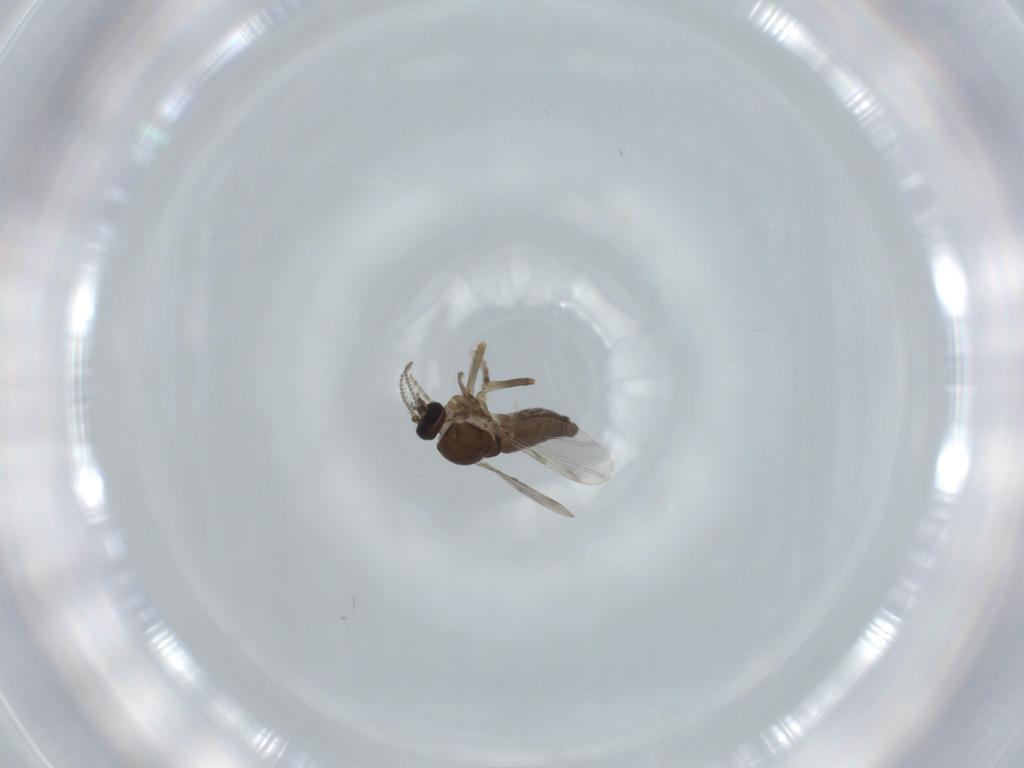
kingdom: Animalia
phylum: Arthropoda
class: Insecta
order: Diptera
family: Ceratopogonidae
